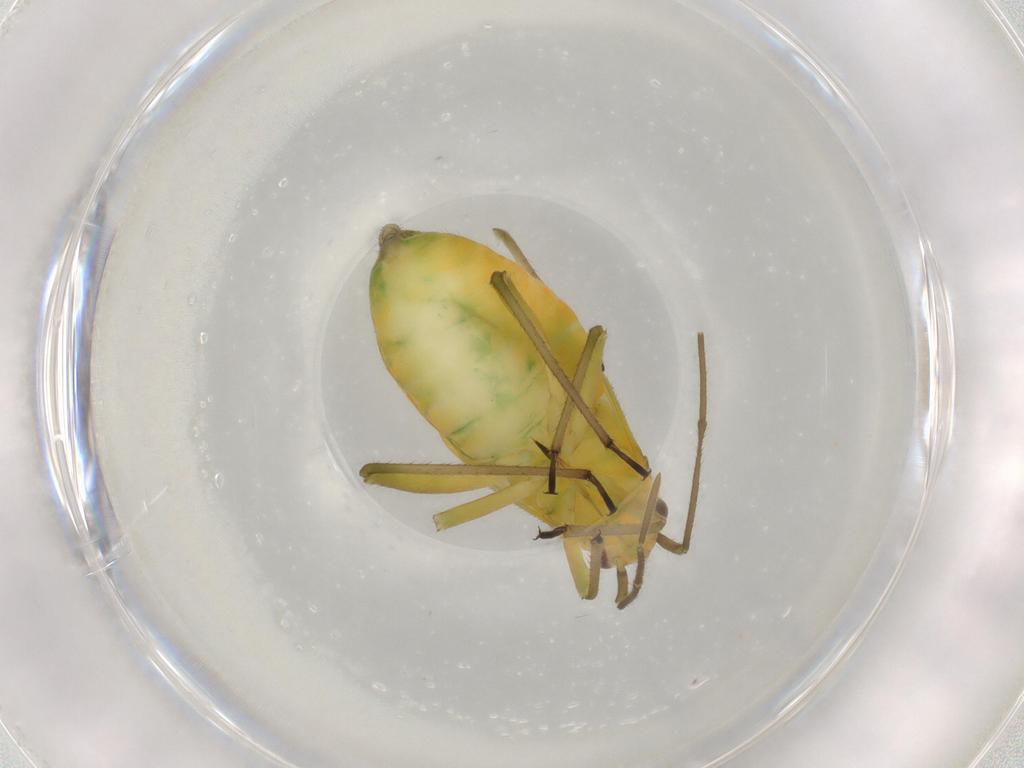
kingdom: Animalia
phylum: Arthropoda
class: Insecta
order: Hemiptera
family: Miridae
